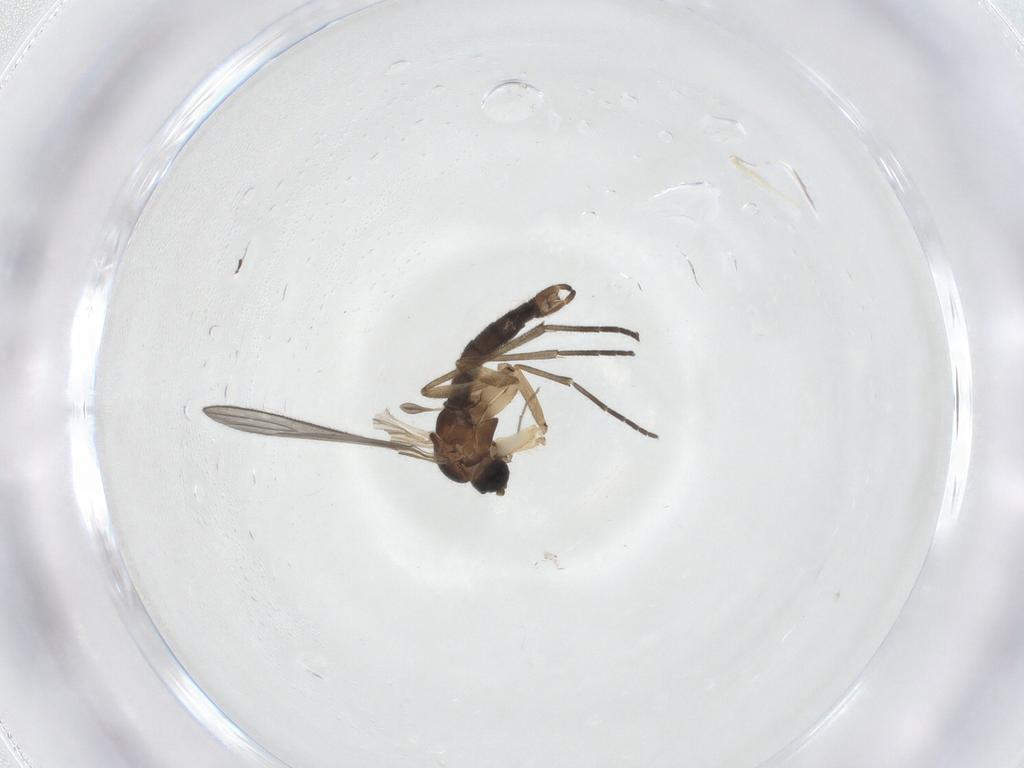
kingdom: Animalia
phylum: Arthropoda
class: Insecta
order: Diptera
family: Sciaridae
